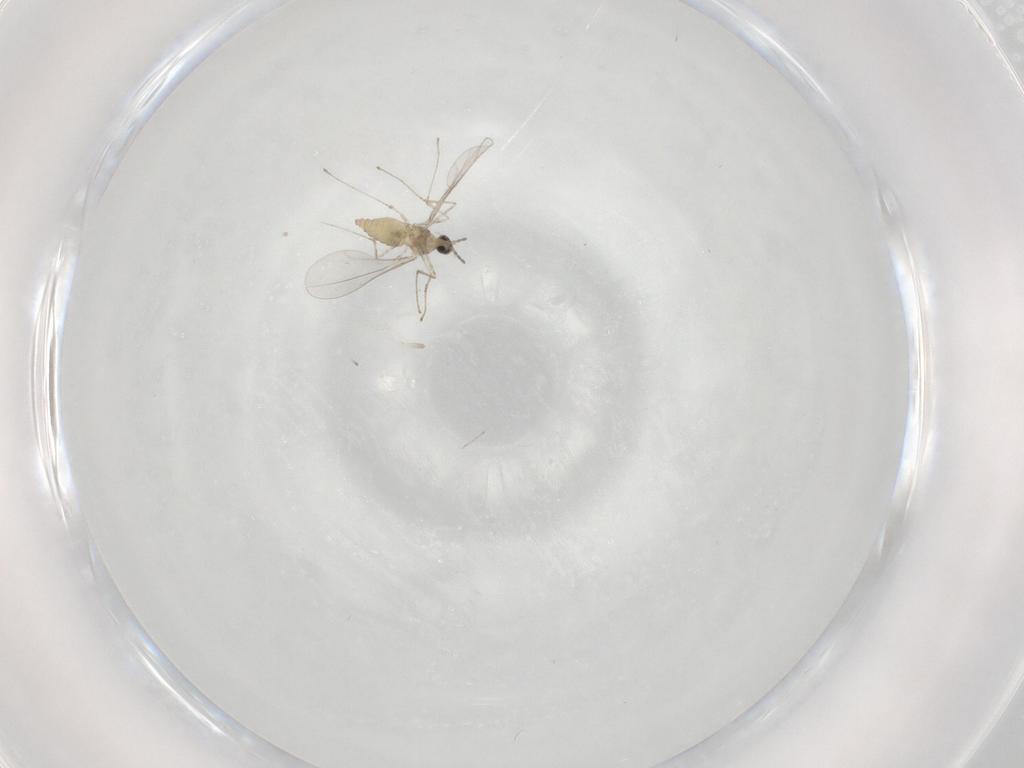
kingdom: Animalia
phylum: Arthropoda
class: Insecta
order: Diptera
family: Cecidomyiidae
